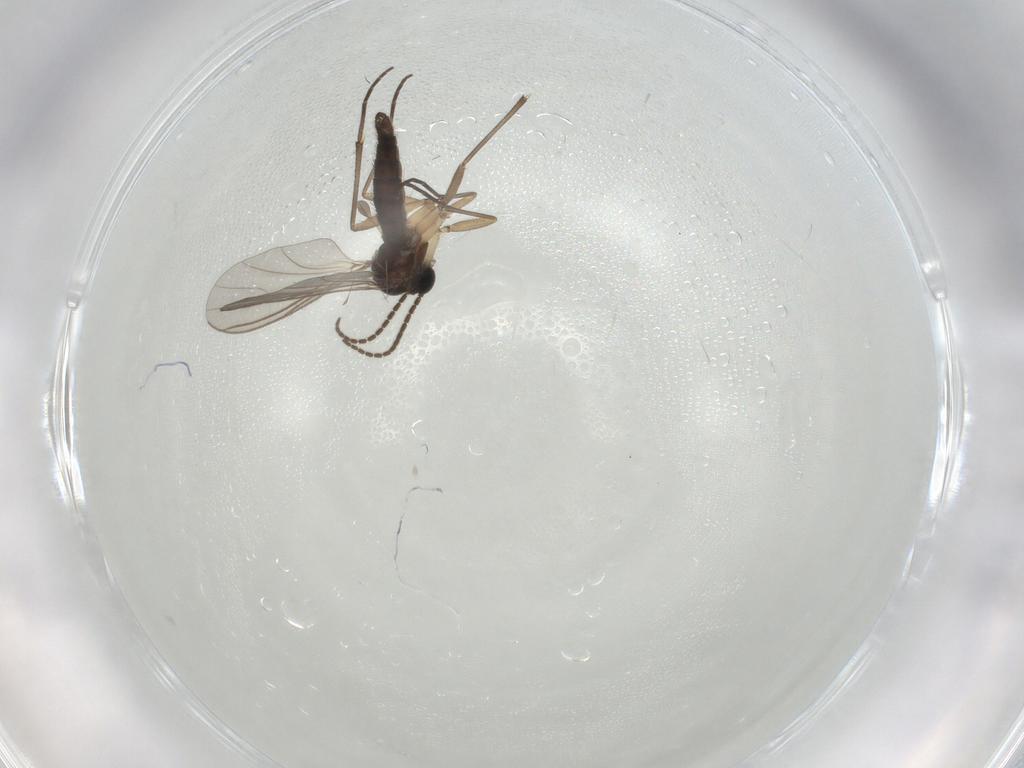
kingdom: Animalia
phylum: Arthropoda
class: Insecta
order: Diptera
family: Sciaridae
